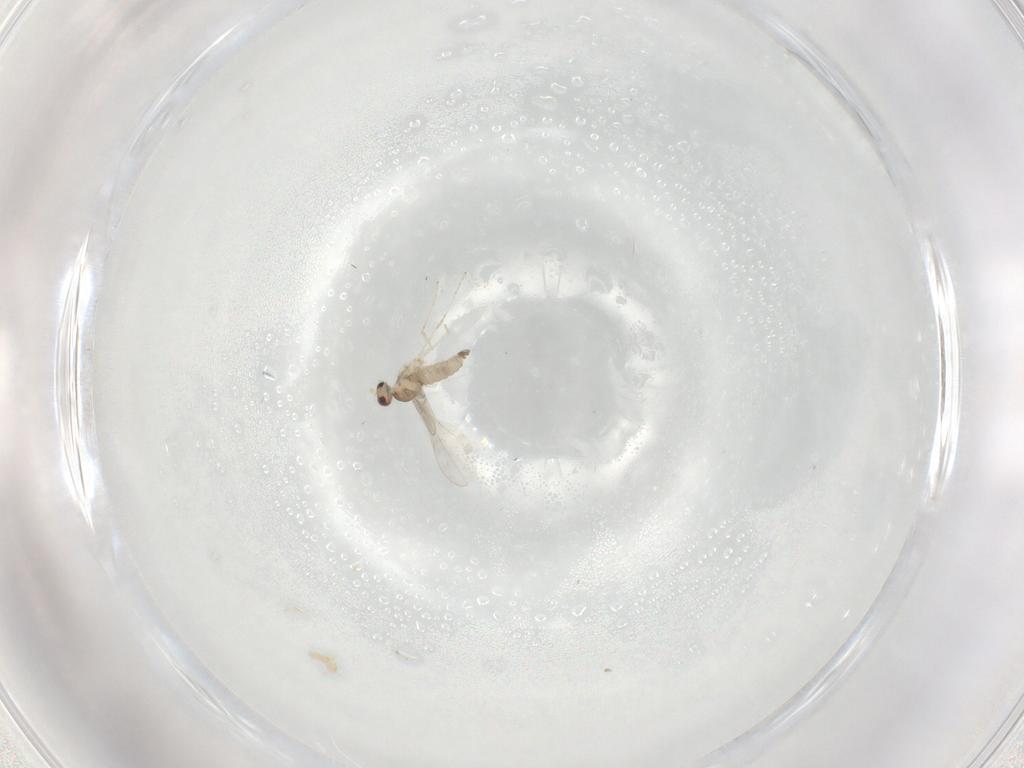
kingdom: Animalia
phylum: Arthropoda
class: Insecta
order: Diptera
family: Cecidomyiidae
